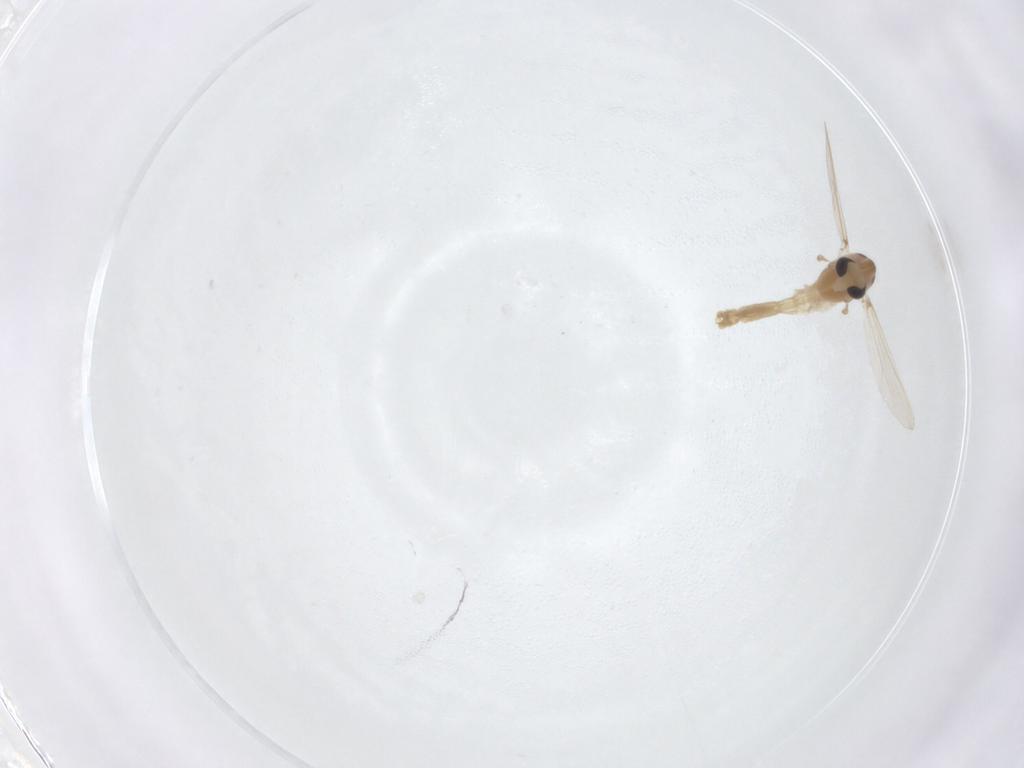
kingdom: Animalia
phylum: Arthropoda
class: Insecta
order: Diptera
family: Chironomidae
